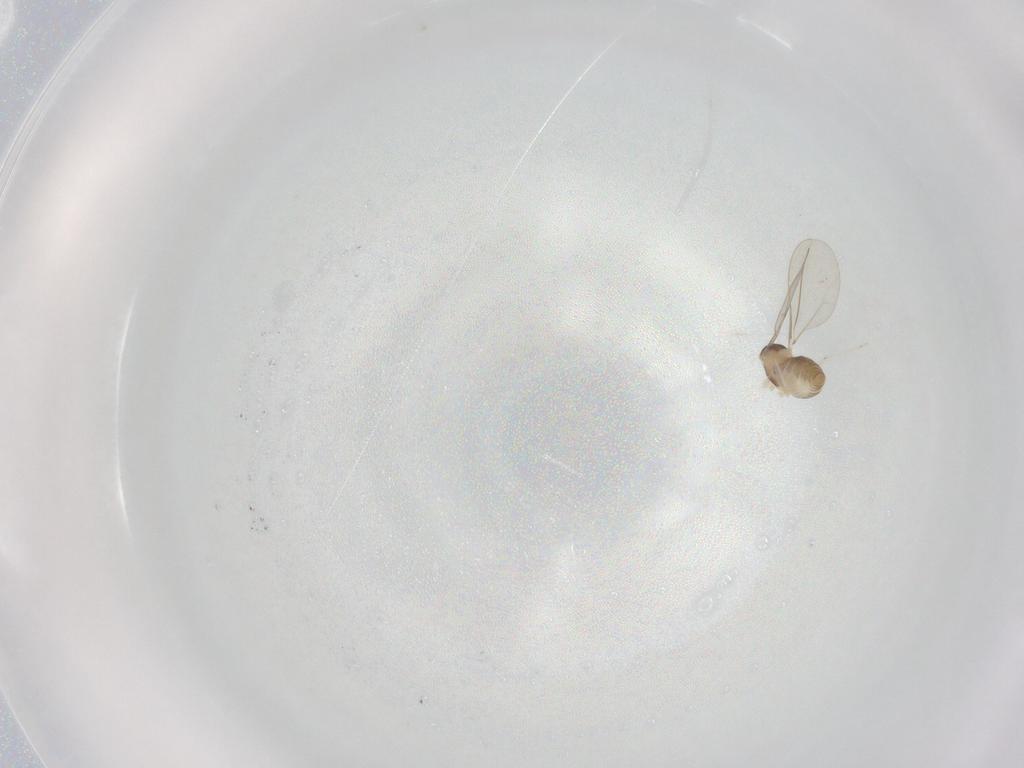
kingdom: Animalia
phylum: Arthropoda
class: Insecta
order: Diptera
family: Cecidomyiidae
